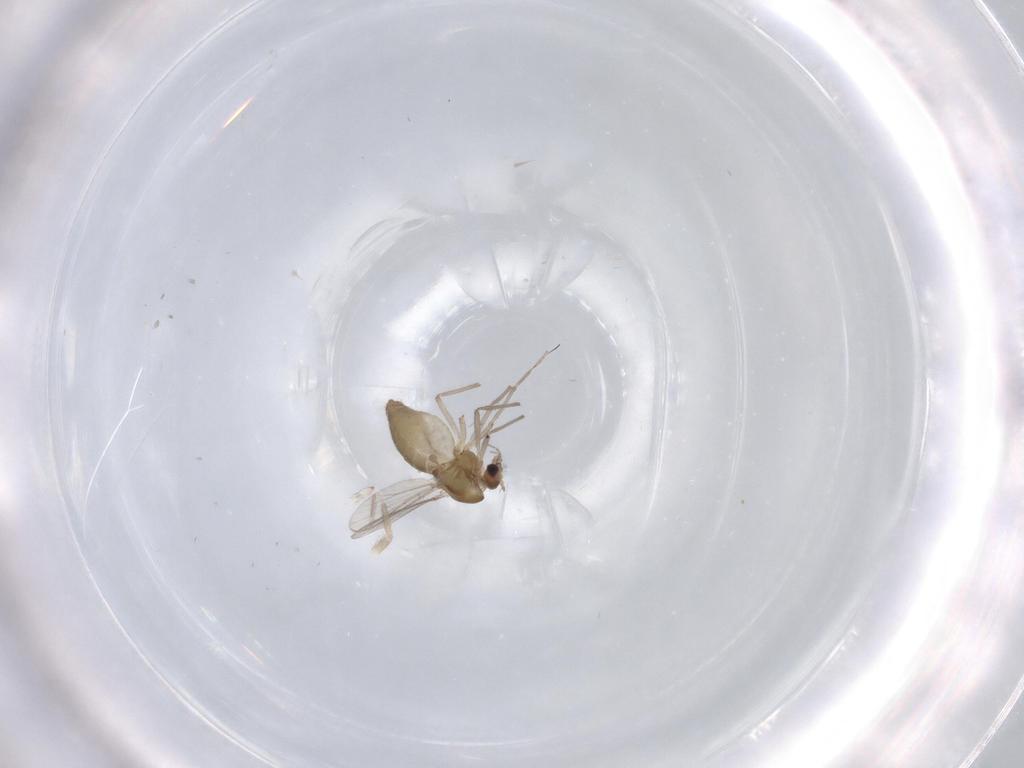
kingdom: Animalia
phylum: Arthropoda
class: Insecta
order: Diptera
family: Chironomidae
